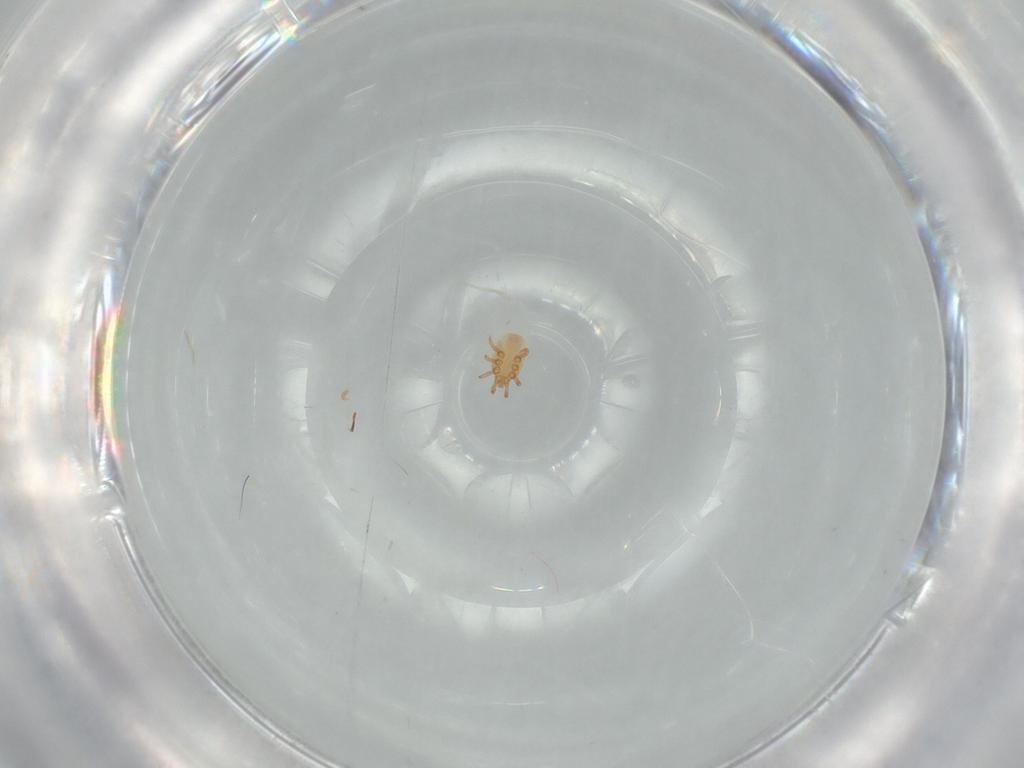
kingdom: Animalia
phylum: Arthropoda
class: Arachnida
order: Mesostigmata
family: Dinychidae
